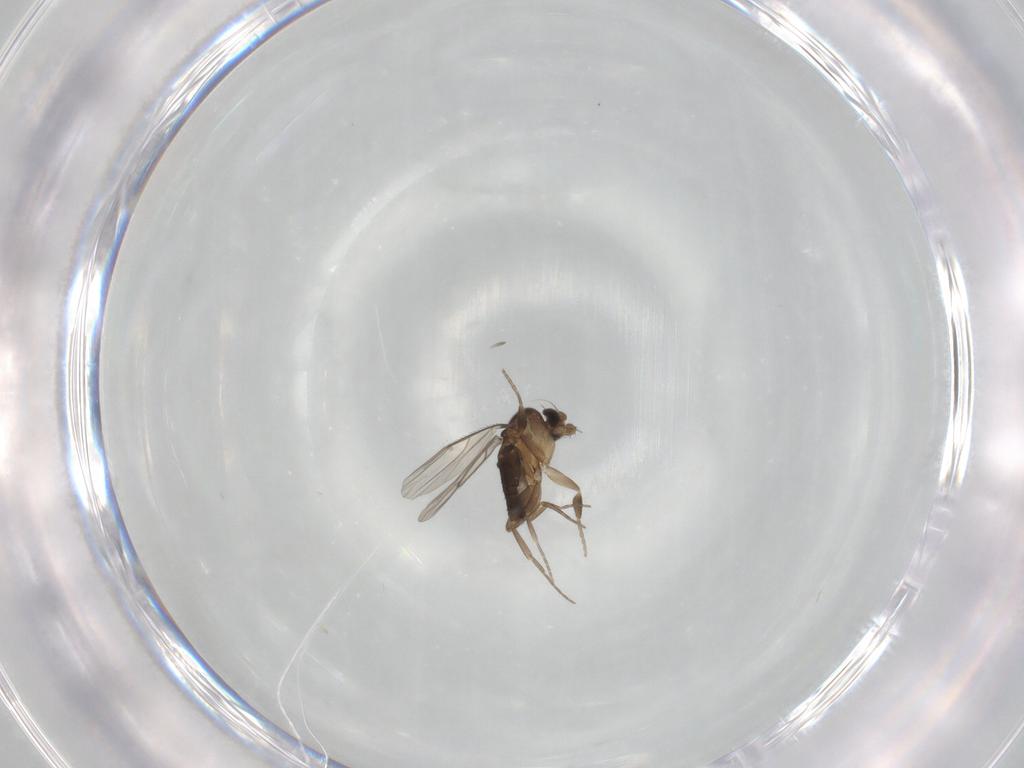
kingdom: Animalia
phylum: Arthropoda
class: Insecta
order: Diptera
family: Phoridae
